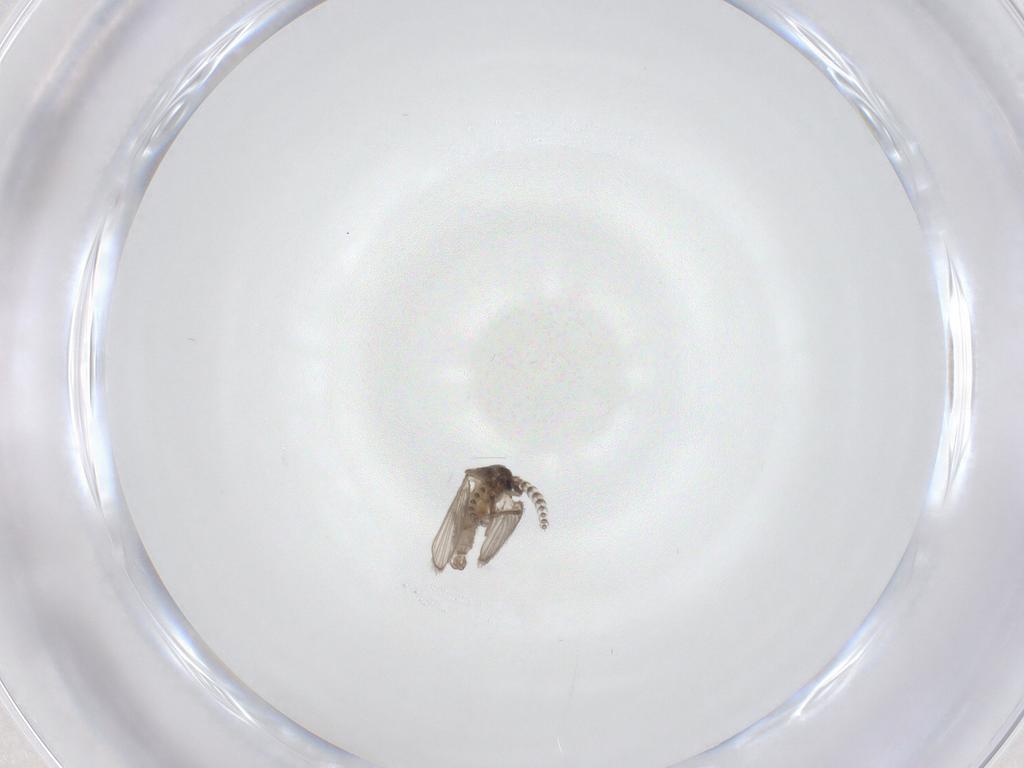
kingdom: Animalia
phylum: Arthropoda
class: Insecta
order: Diptera
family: Psychodidae
